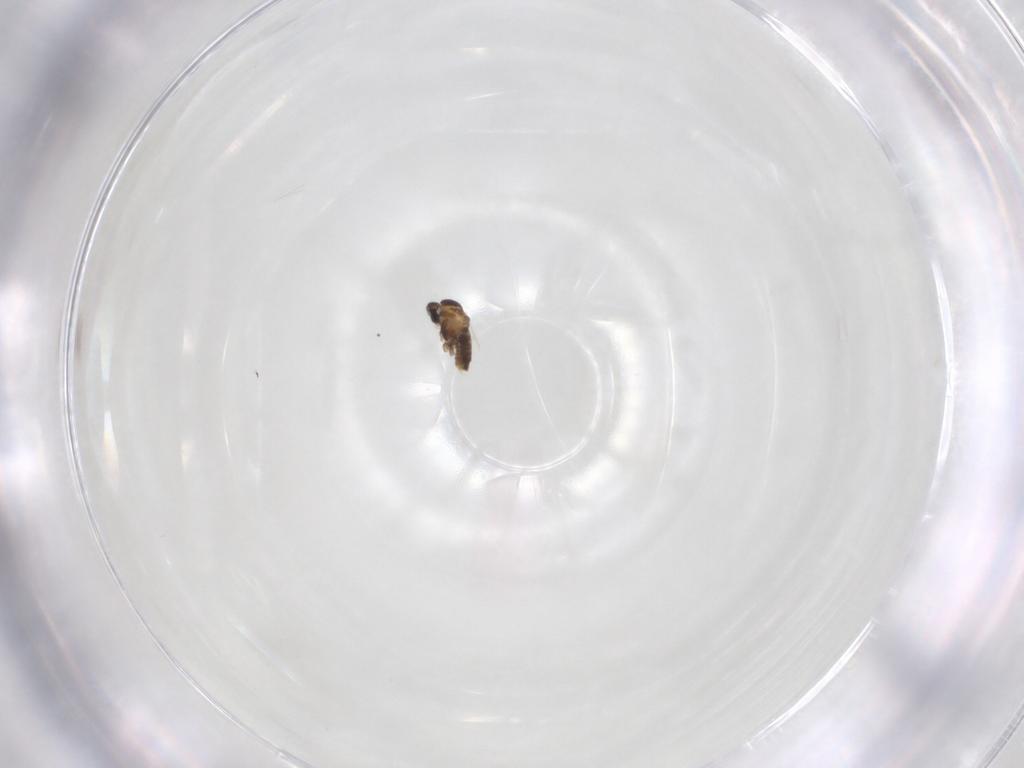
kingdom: Animalia
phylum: Arthropoda
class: Insecta
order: Diptera
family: Cecidomyiidae
